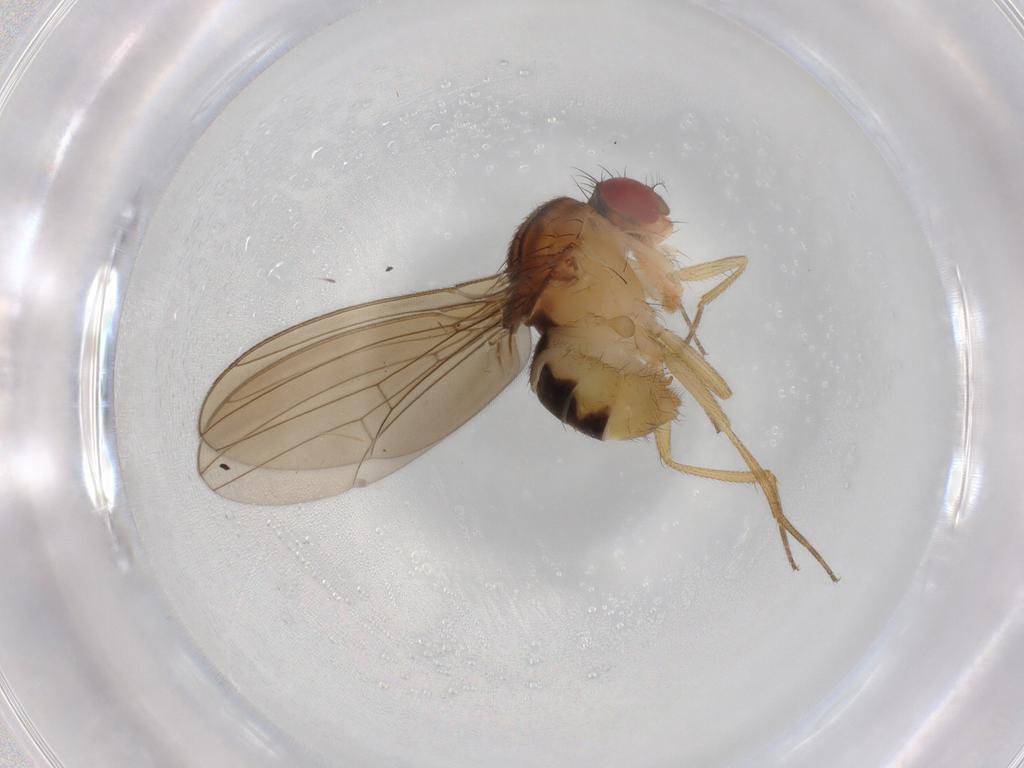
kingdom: Animalia
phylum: Arthropoda
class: Insecta
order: Diptera
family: Drosophilidae
